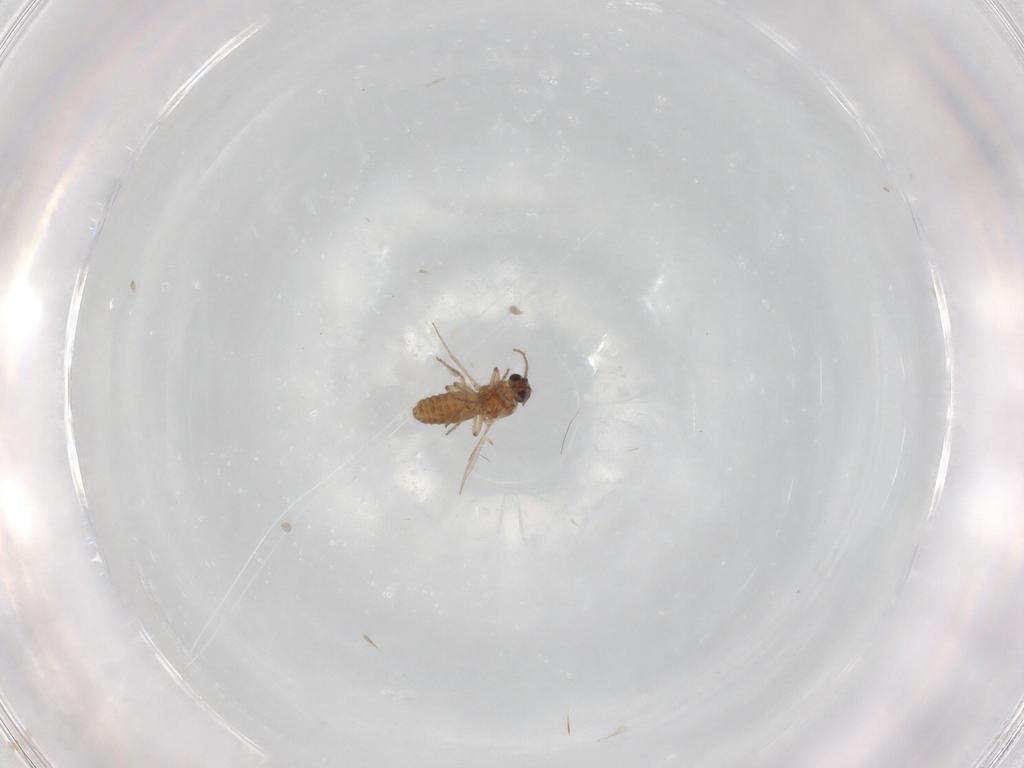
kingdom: Animalia
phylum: Arthropoda
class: Insecta
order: Diptera
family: Ceratopogonidae
